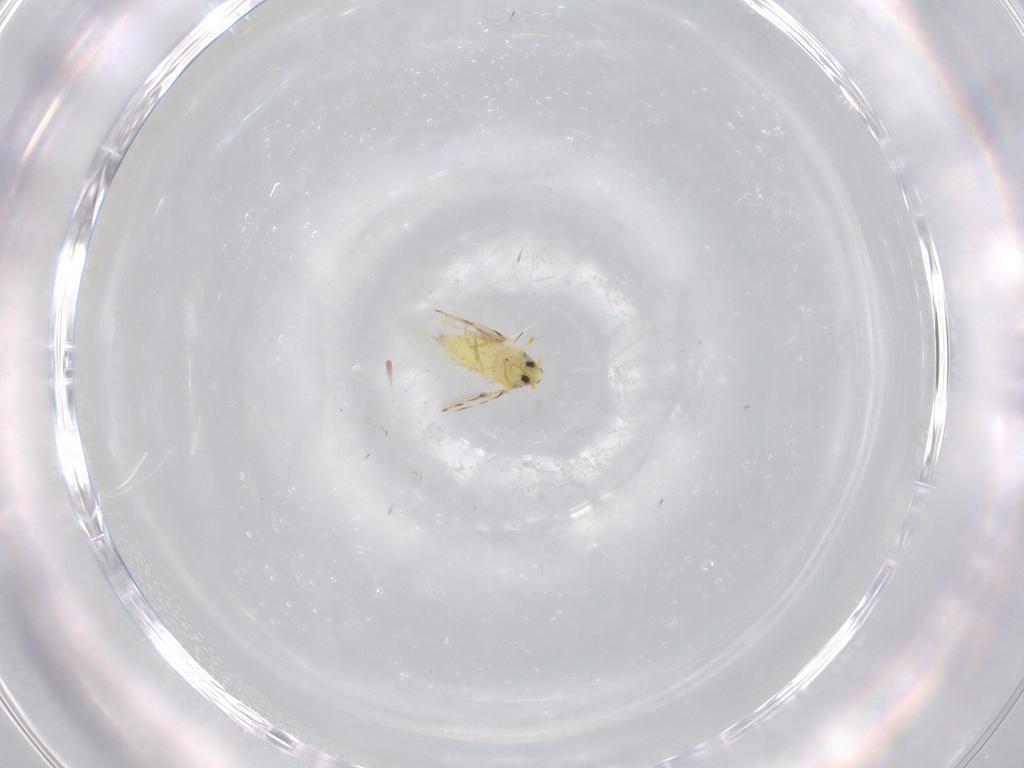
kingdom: Animalia
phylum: Arthropoda
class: Insecta
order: Hemiptera
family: Aleyrodidae
